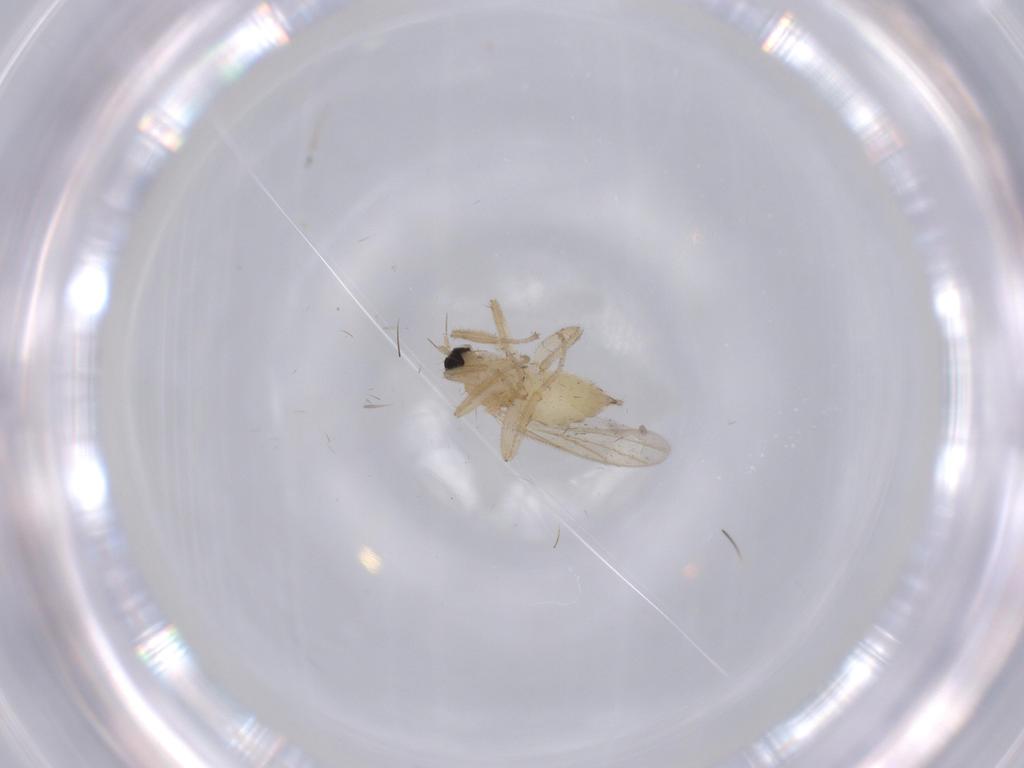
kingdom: Animalia
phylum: Arthropoda
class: Insecta
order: Diptera
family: Hybotidae
